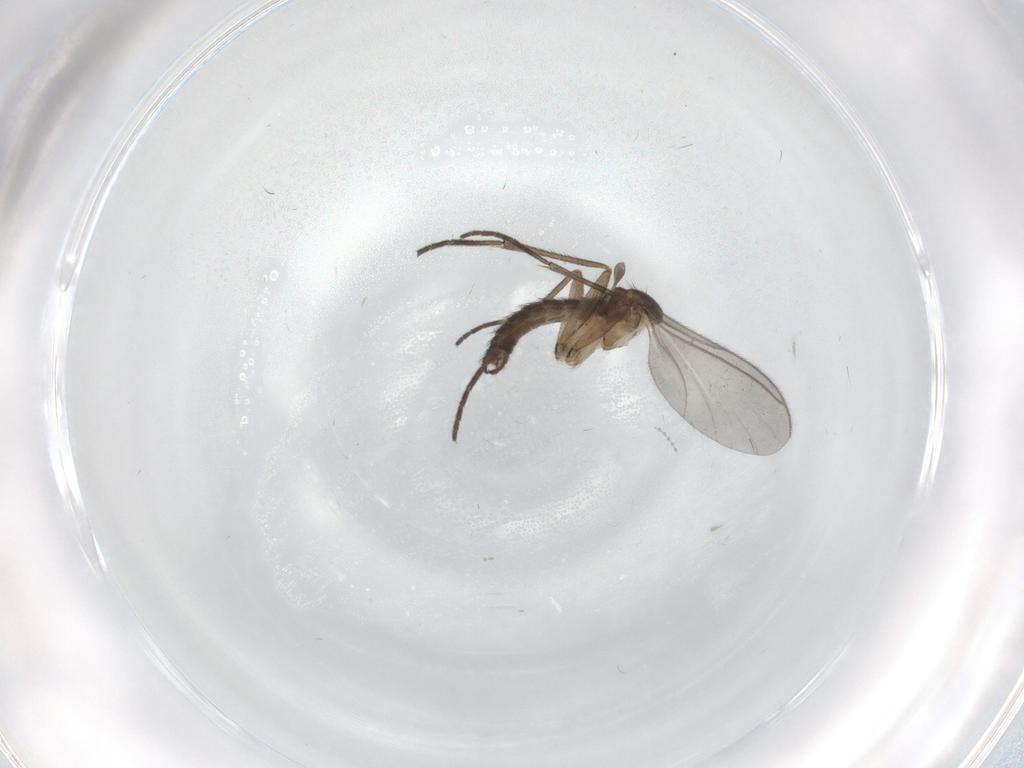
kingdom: Animalia
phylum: Arthropoda
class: Insecta
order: Diptera
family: Sciaridae
